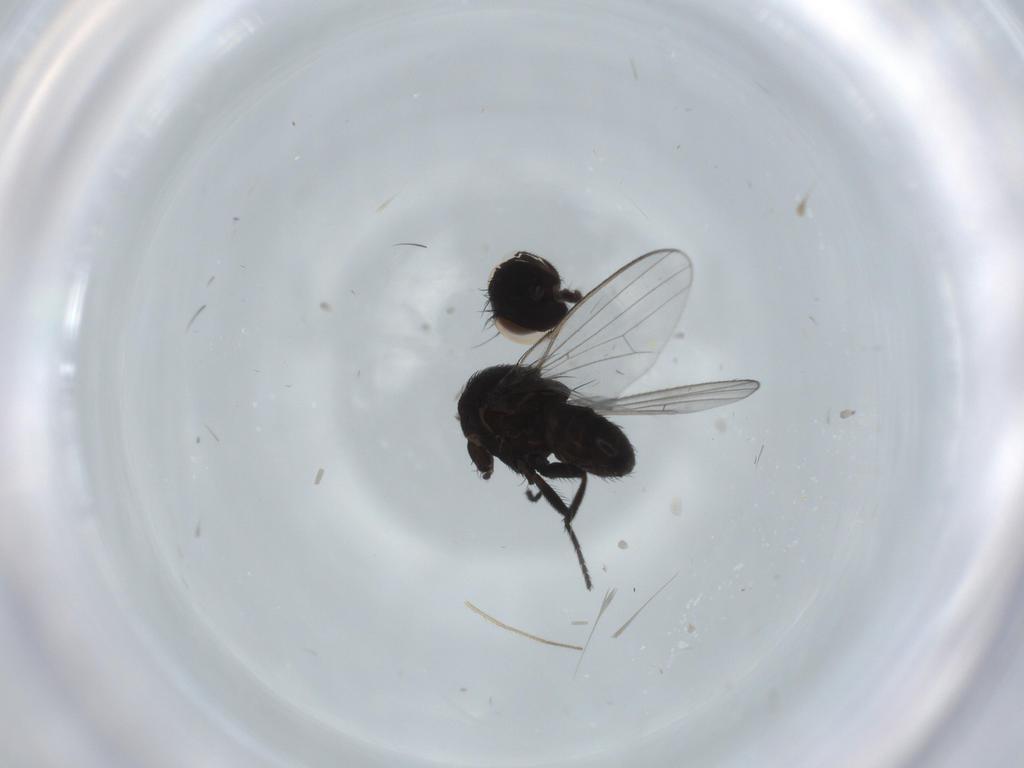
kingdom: Animalia
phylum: Arthropoda
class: Insecta
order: Diptera
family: Milichiidae
